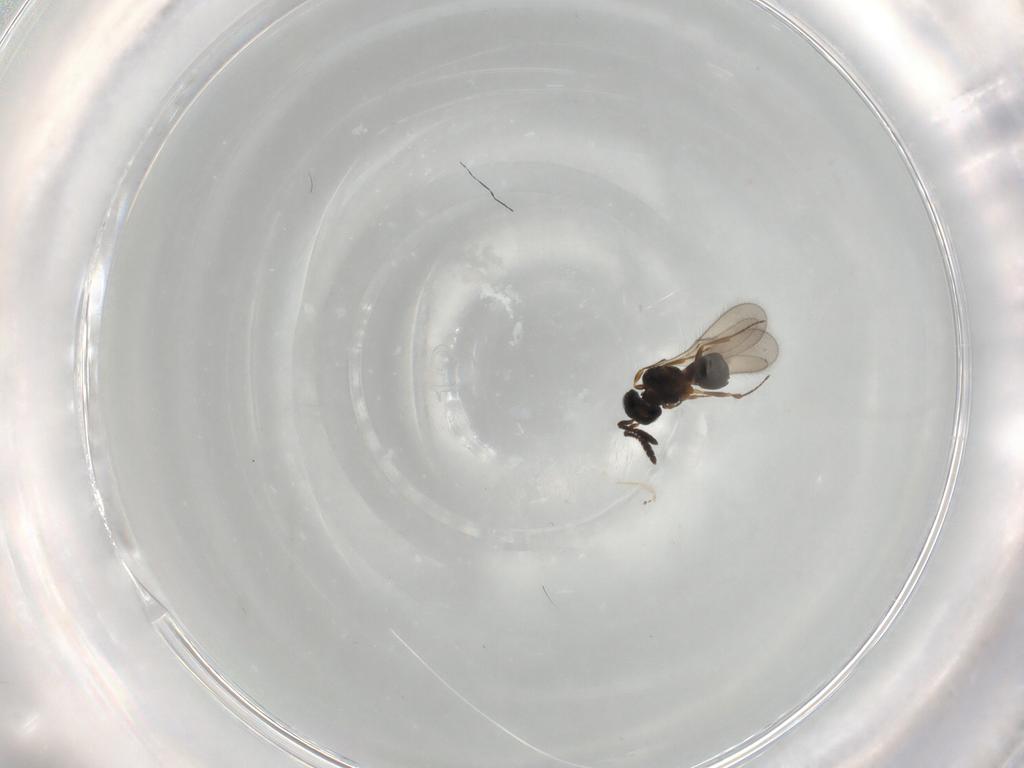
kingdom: Animalia
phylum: Arthropoda
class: Insecta
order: Hymenoptera
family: Scelionidae
